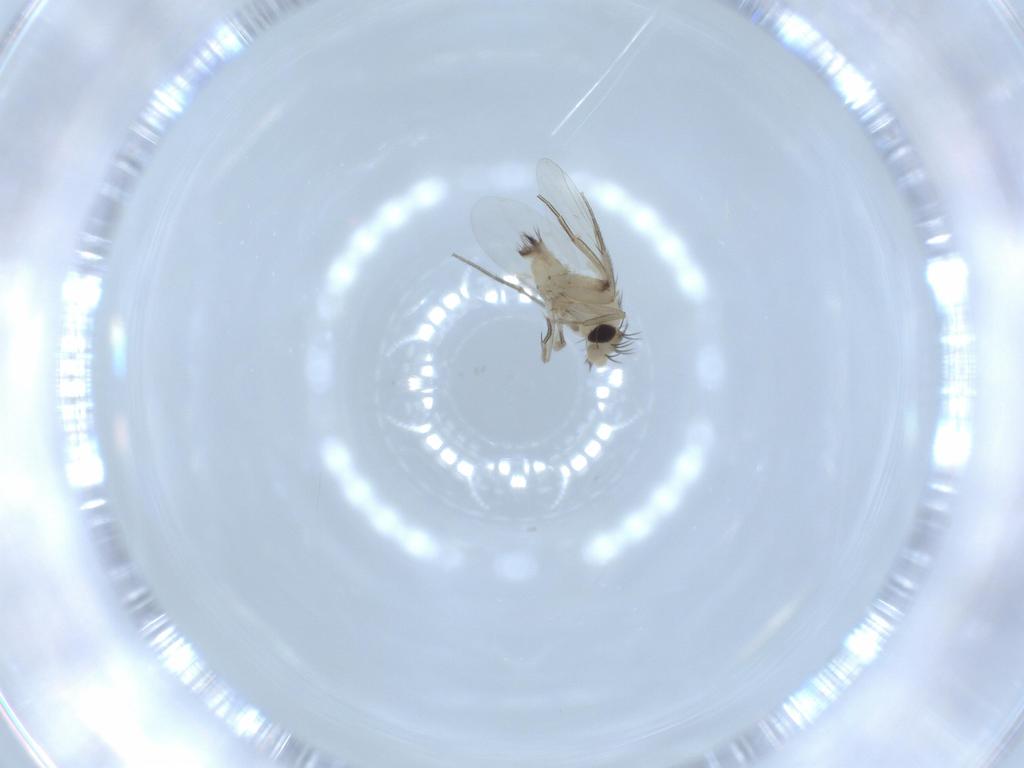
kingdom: Animalia
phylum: Arthropoda
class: Insecta
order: Diptera
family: Phoridae
